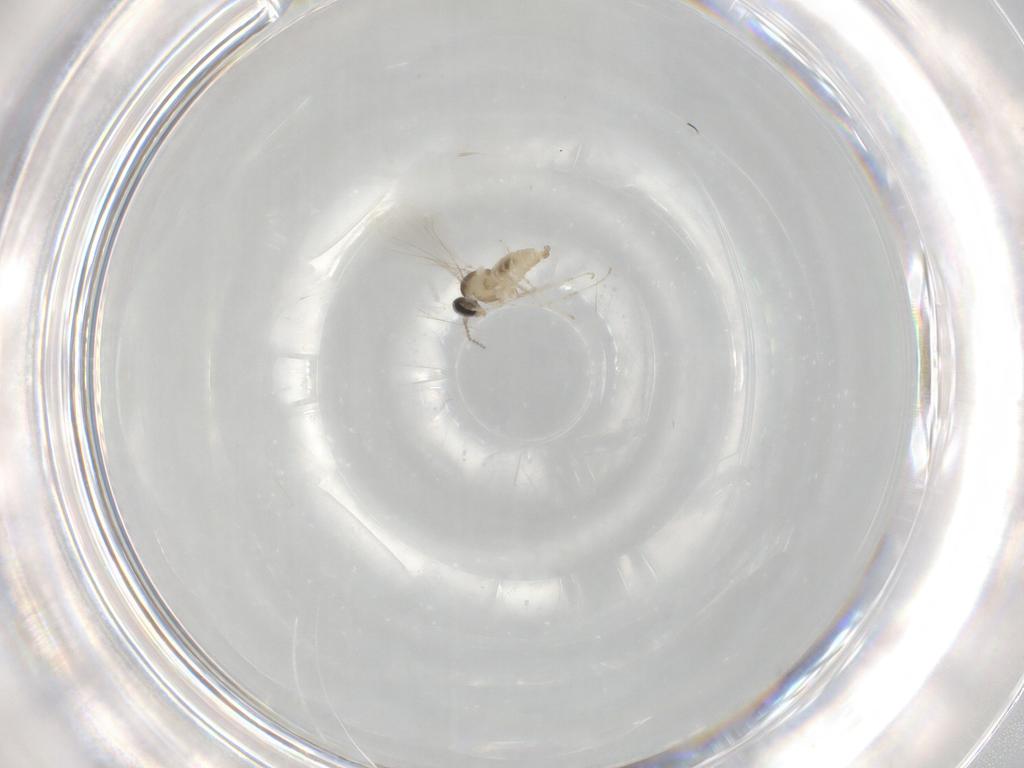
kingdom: Animalia
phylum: Arthropoda
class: Insecta
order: Diptera
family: Cecidomyiidae
